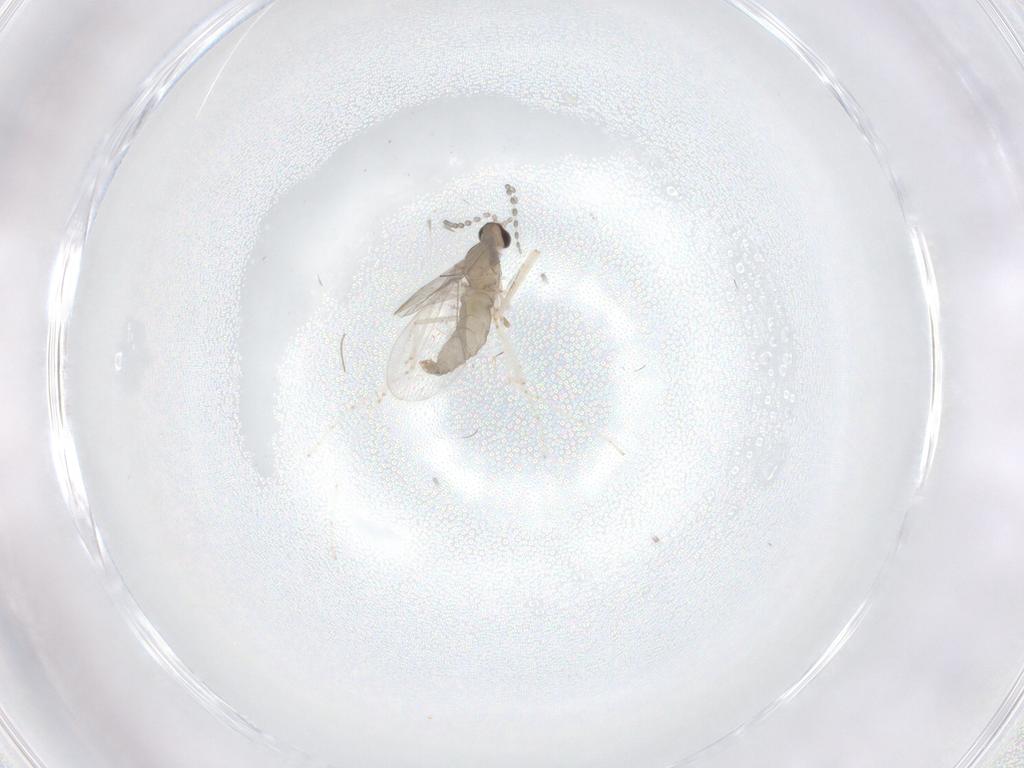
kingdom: Animalia
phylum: Arthropoda
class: Insecta
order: Diptera
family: Cecidomyiidae
